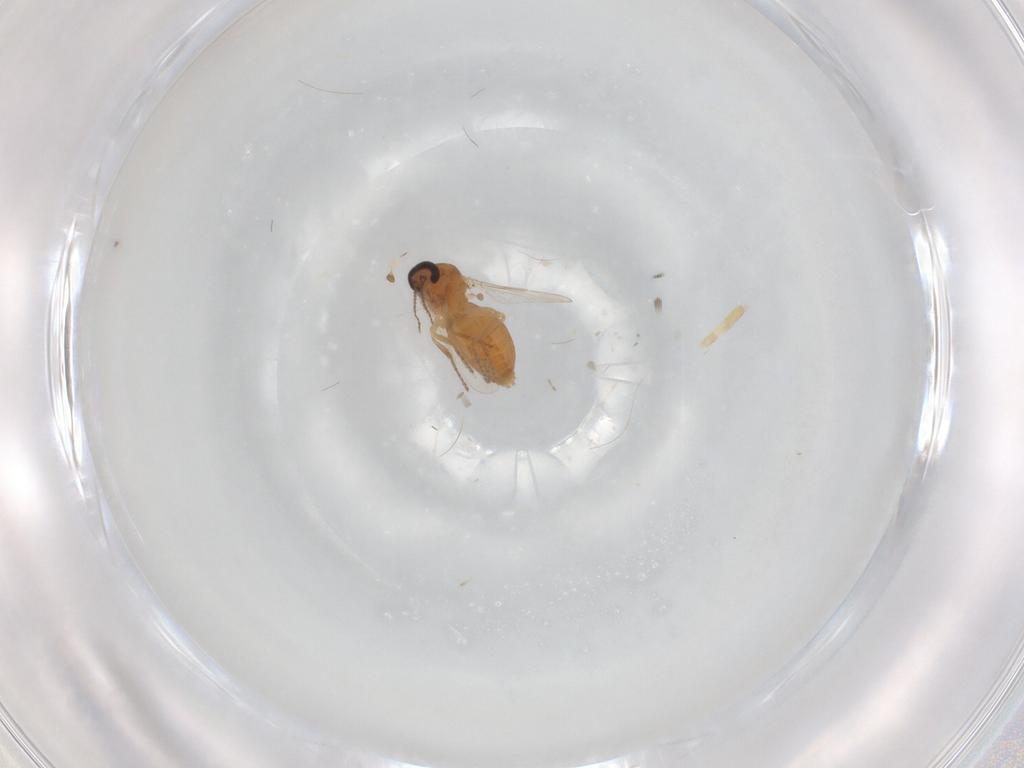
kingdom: Animalia
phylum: Arthropoda
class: Insecta
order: Diptera
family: Ceratopogonidae
